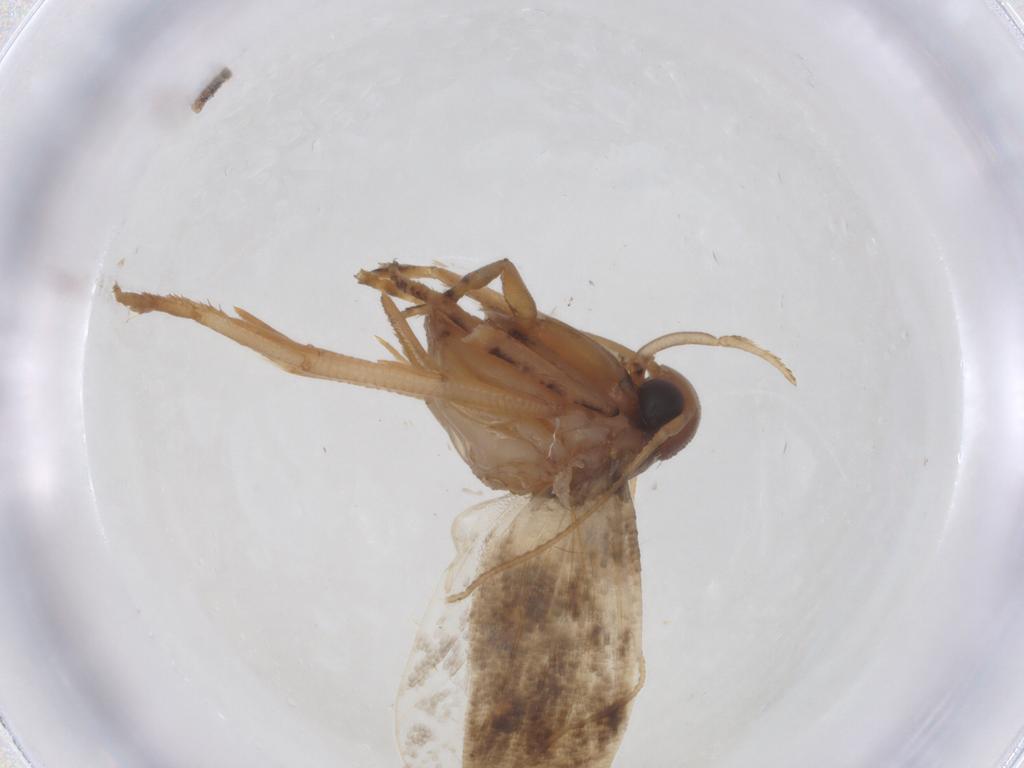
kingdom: Animalia
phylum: Arthropoda
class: Insecta
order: Lepidoptera
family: Gelechiidae
